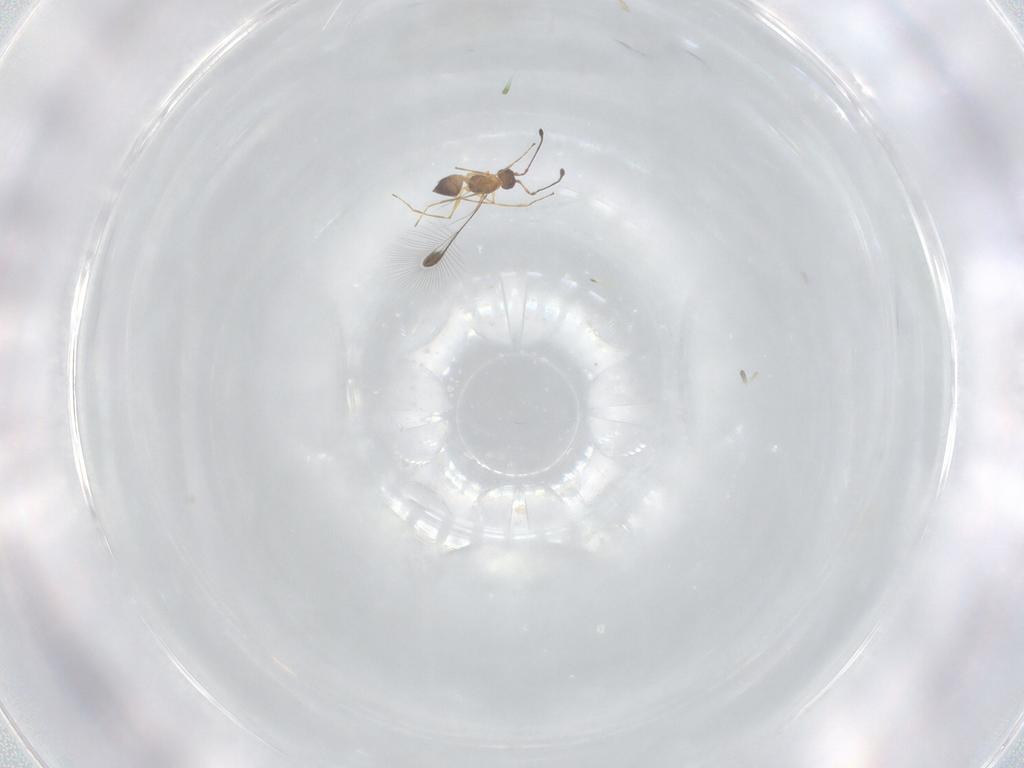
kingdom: Animalia
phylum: Arthropoda
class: Insecta
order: Hymenoptera
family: Mymaridae
